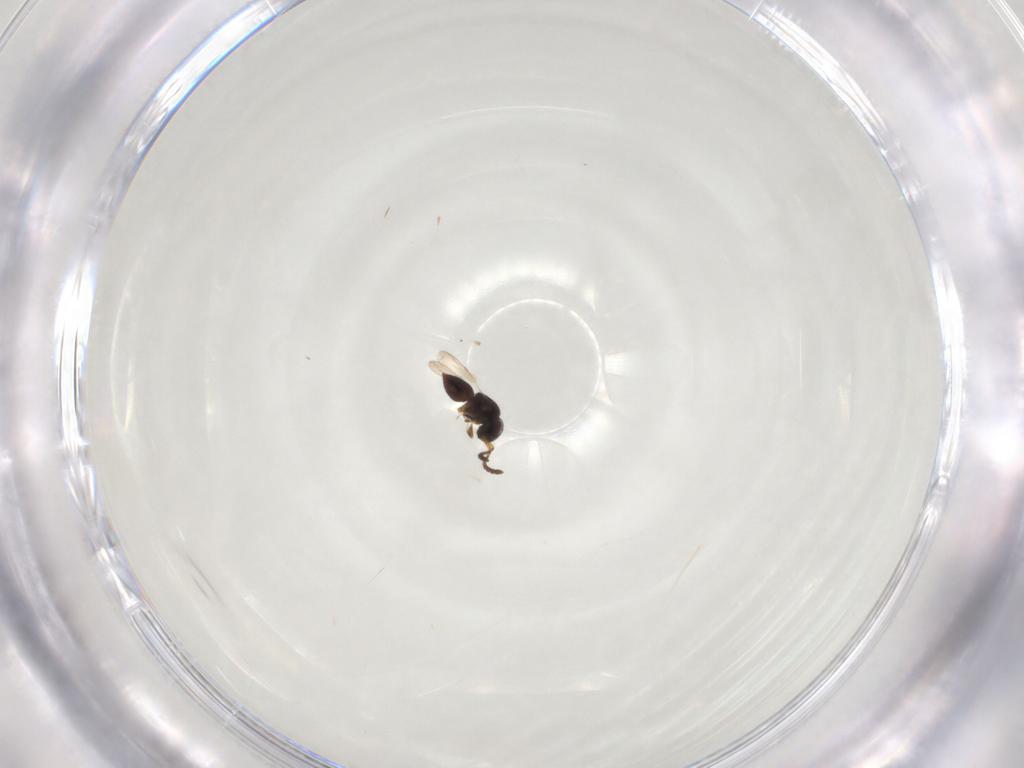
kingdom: Animalia
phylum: Arthropoda
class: Insecta
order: Hymenoptera
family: Ceraphronidae
